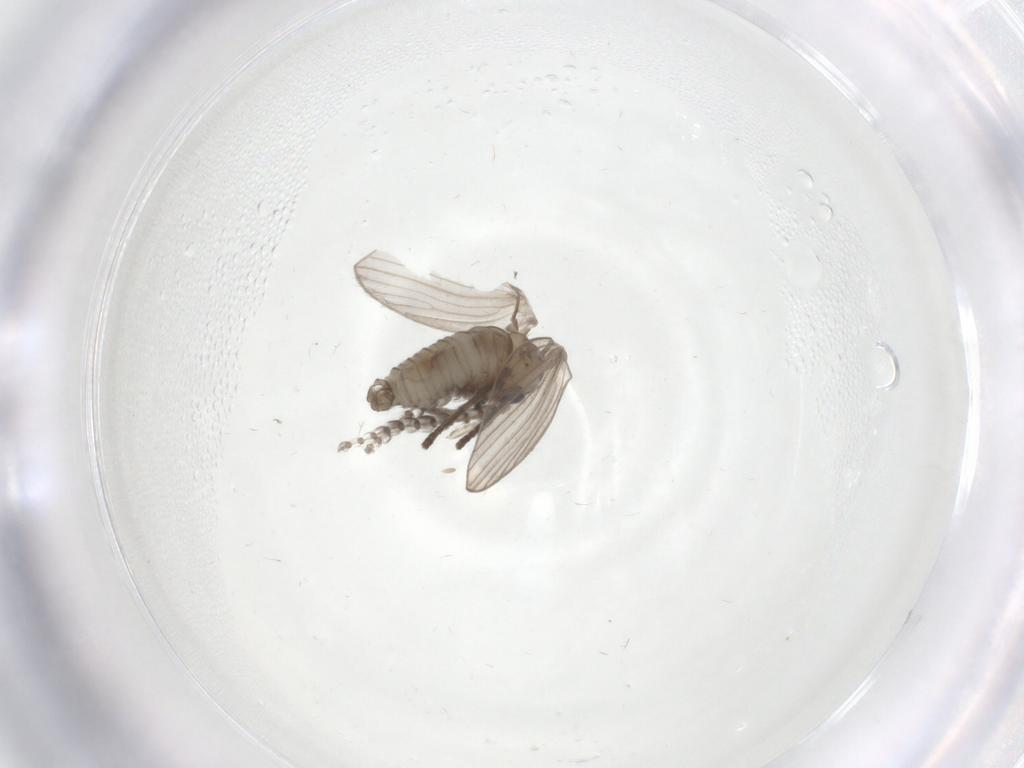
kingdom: Animalia
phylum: Arthropoda
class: Insecta
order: Diptera
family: Psychodidae
